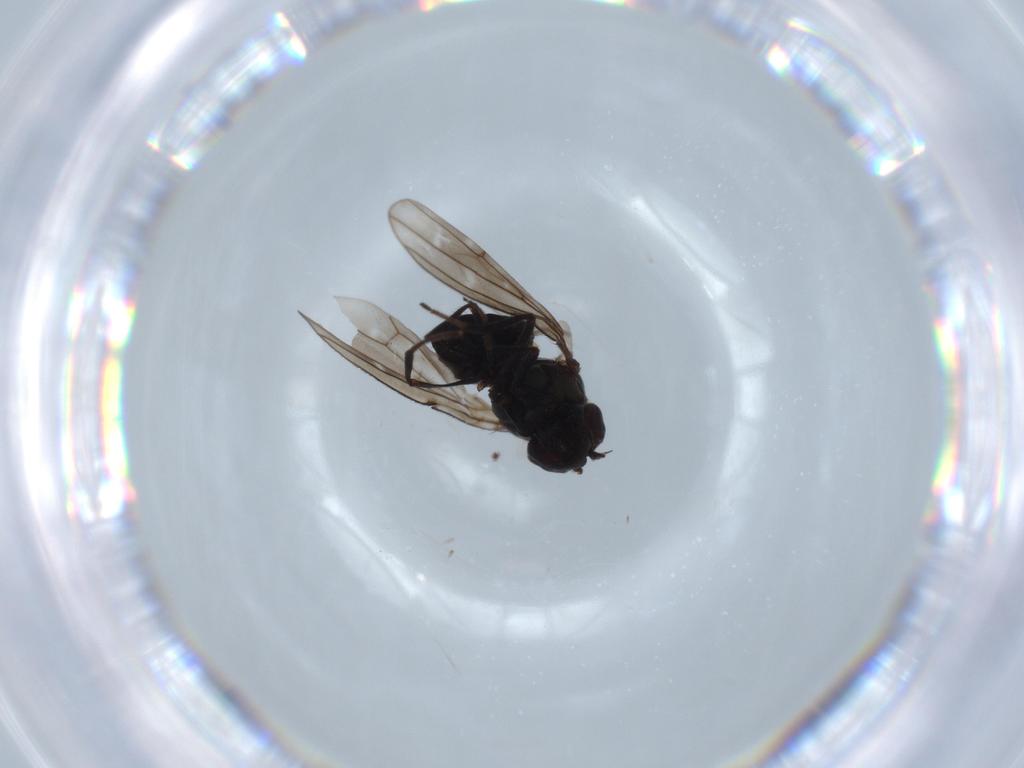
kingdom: Animalia
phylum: Arthropoda
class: Insecta
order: Diptera
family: Ephydridae
